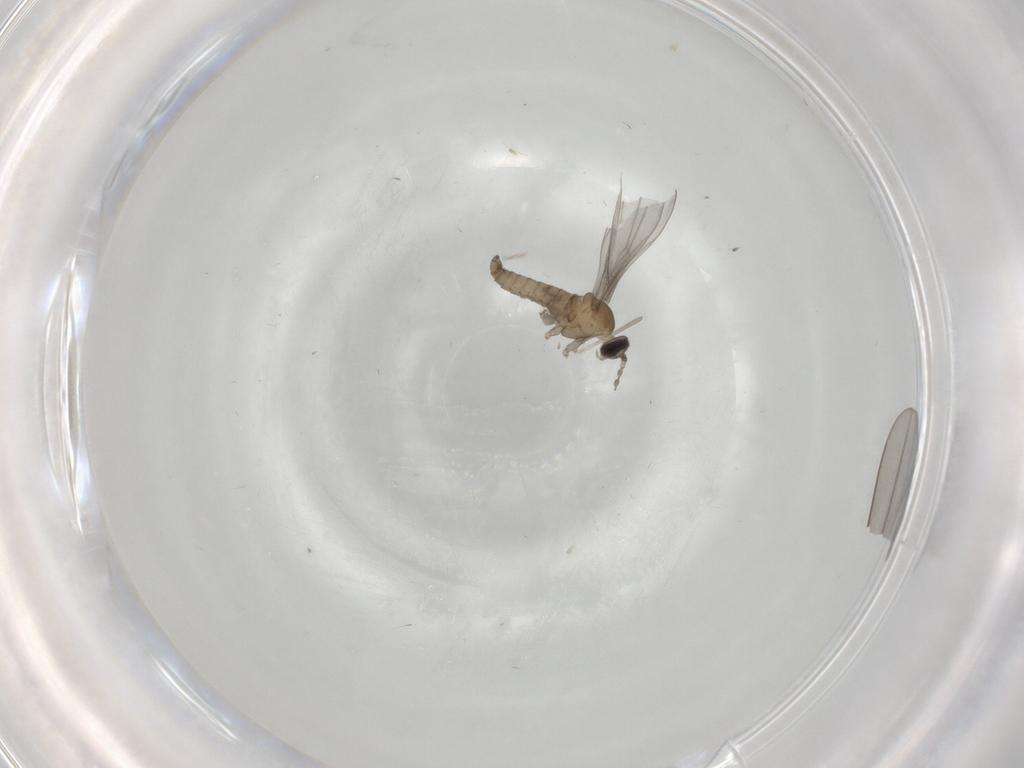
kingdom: Animalia
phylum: Arthropoda
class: Insecta
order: Diptera
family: Cecidomyiidae
